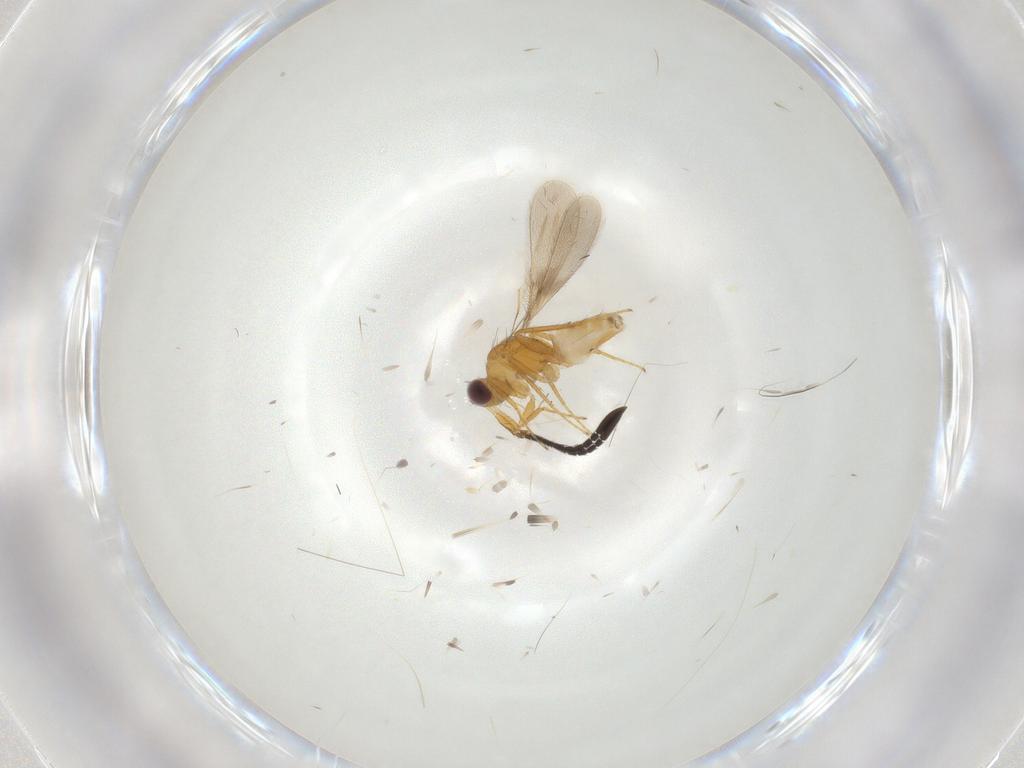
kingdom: Animalia
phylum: Arthropoda
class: Insecta
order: Hymenoptera
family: Mymaridae
